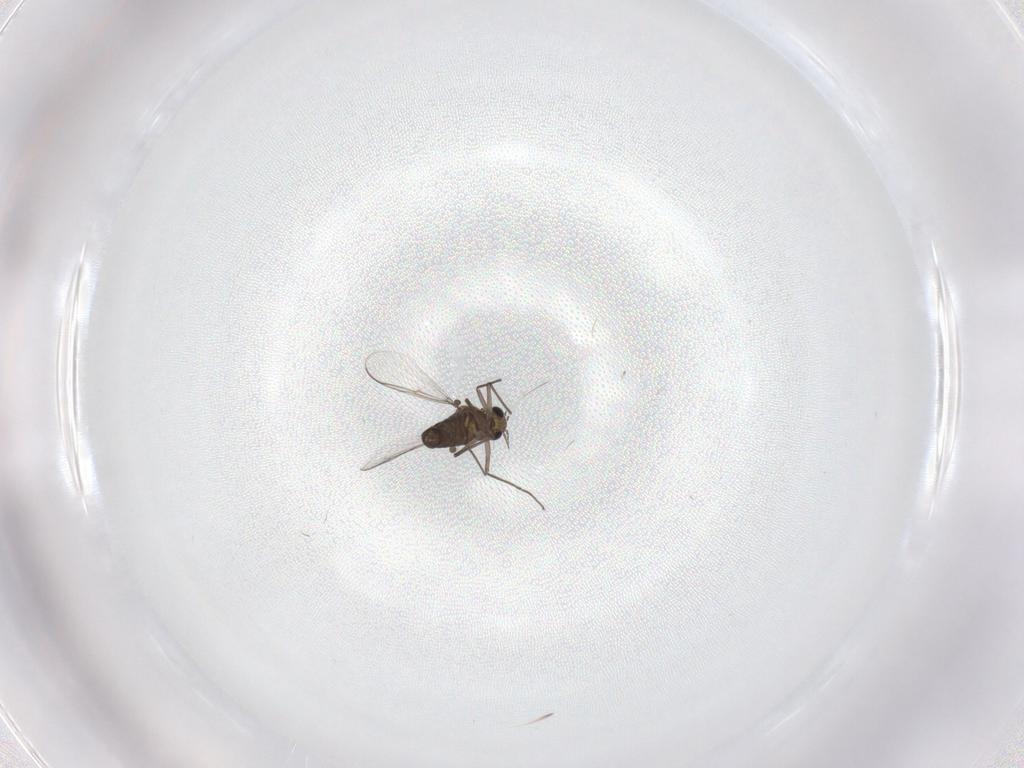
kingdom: Animalia
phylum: Arthropoda
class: Insecta
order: Diptera
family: Chironomidae
